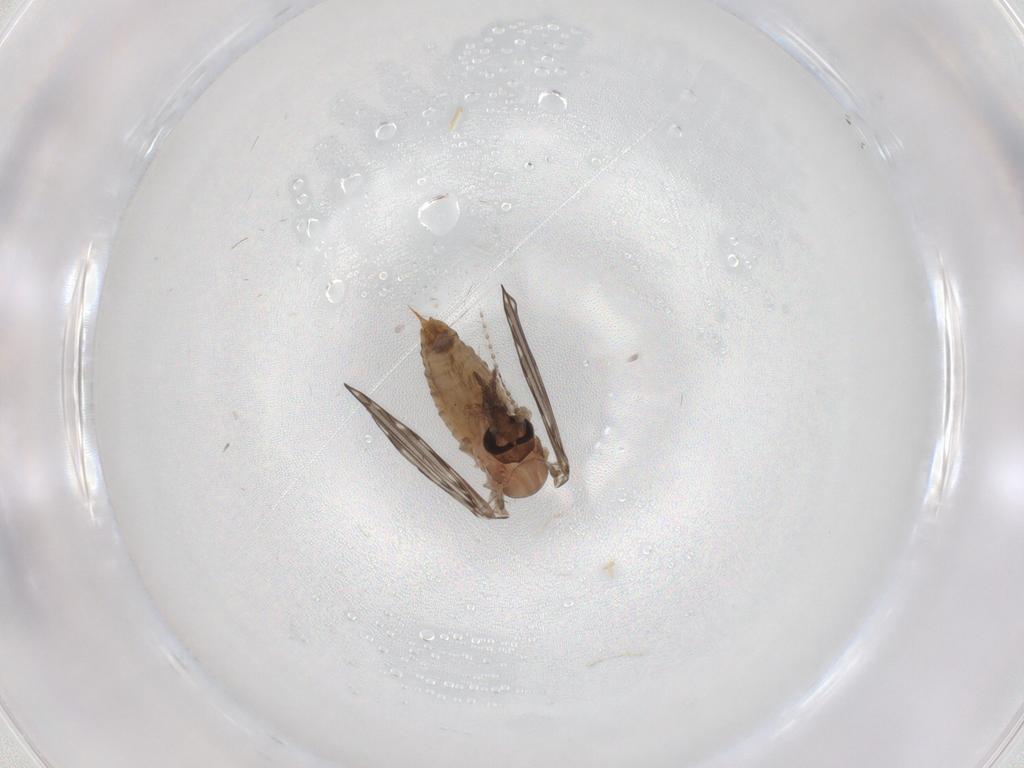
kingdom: Animalia
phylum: Arthropoda
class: Insecta
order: Diptera
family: Psychodidae
